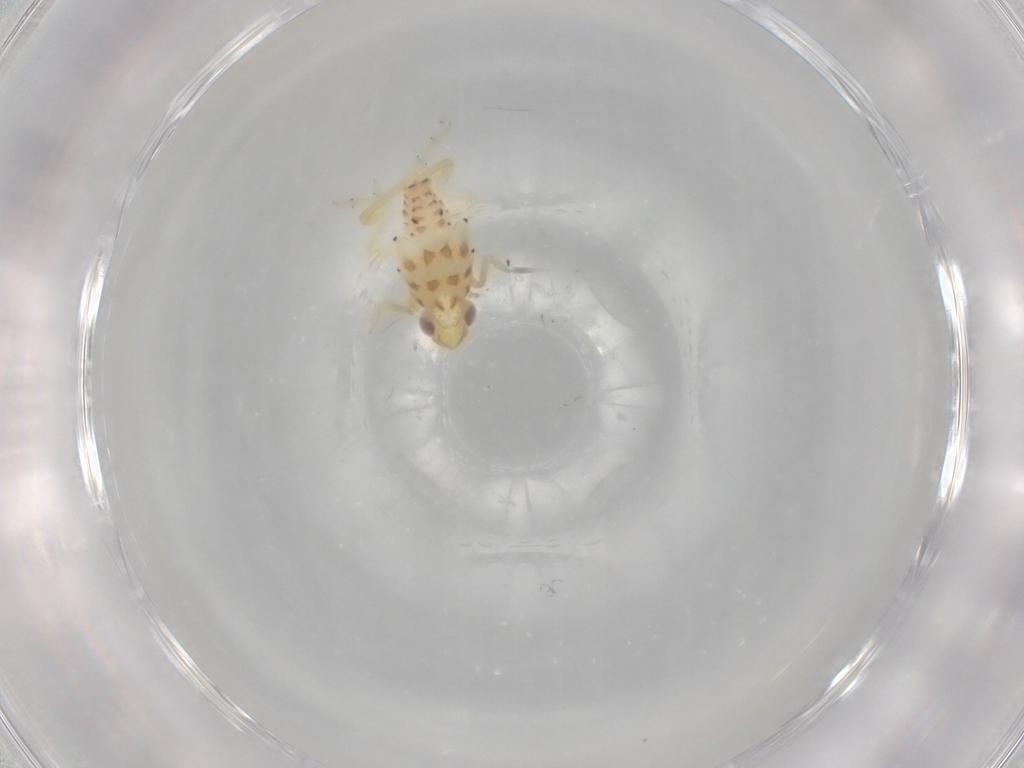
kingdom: Animalia
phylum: Arthropoda
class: Insecta
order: Hemiptera
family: Tropiduchidae
